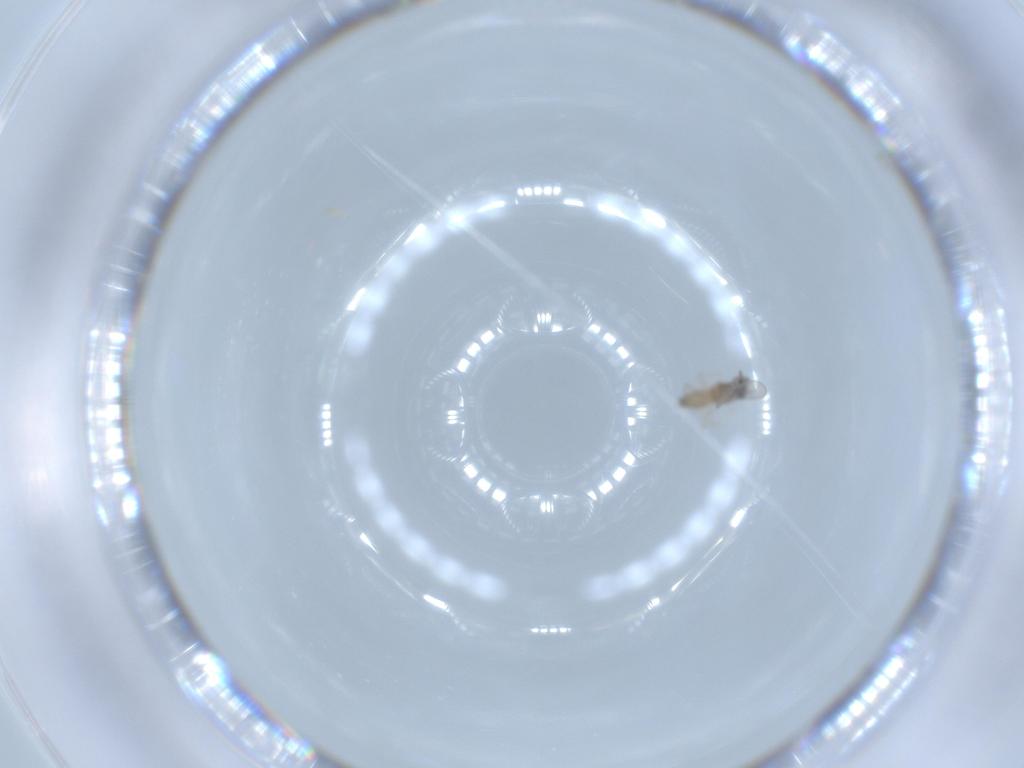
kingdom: Animalia
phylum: Arthropoda
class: Insecta
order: Diptera
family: Cecidomyiidae
